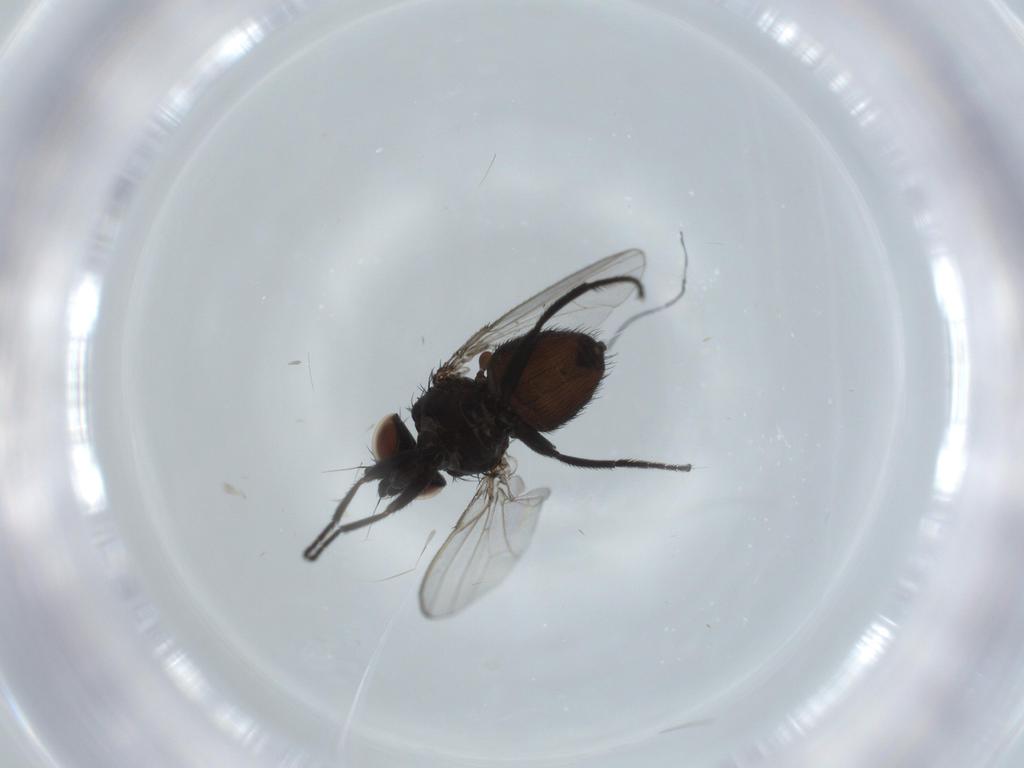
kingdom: Animalia
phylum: Arthropoda
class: Insecta
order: Diptera
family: Milichiidae
